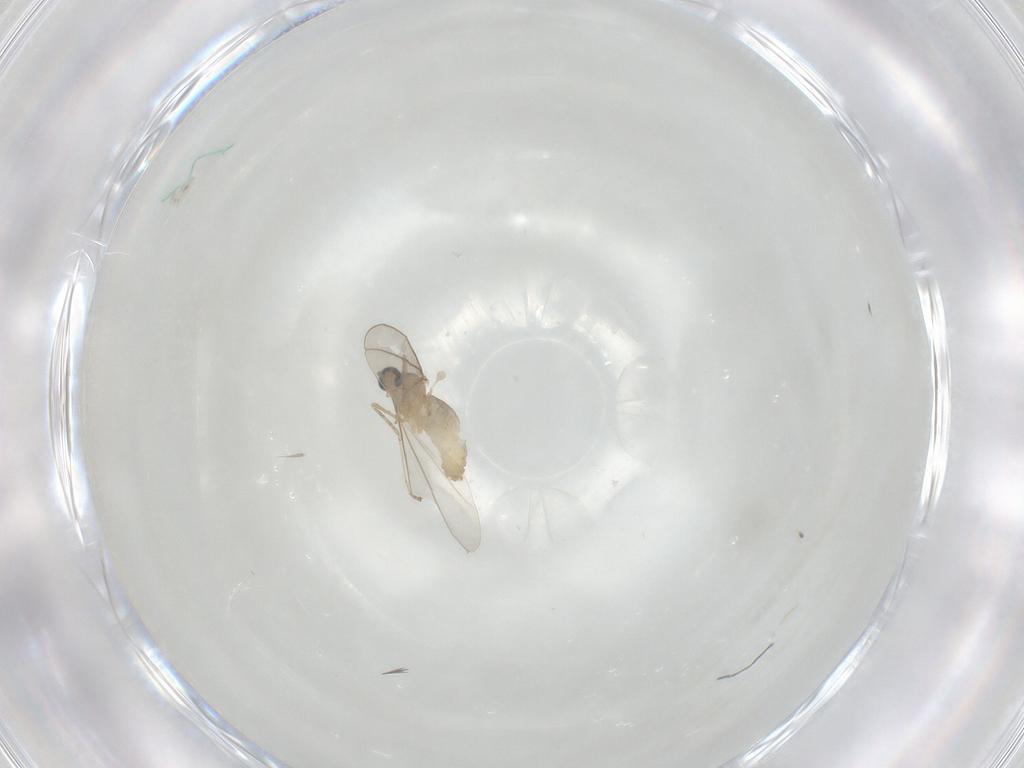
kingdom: Animalia
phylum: Arthropoda
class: Insecta
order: Diptera
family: Cecidomyiidae
